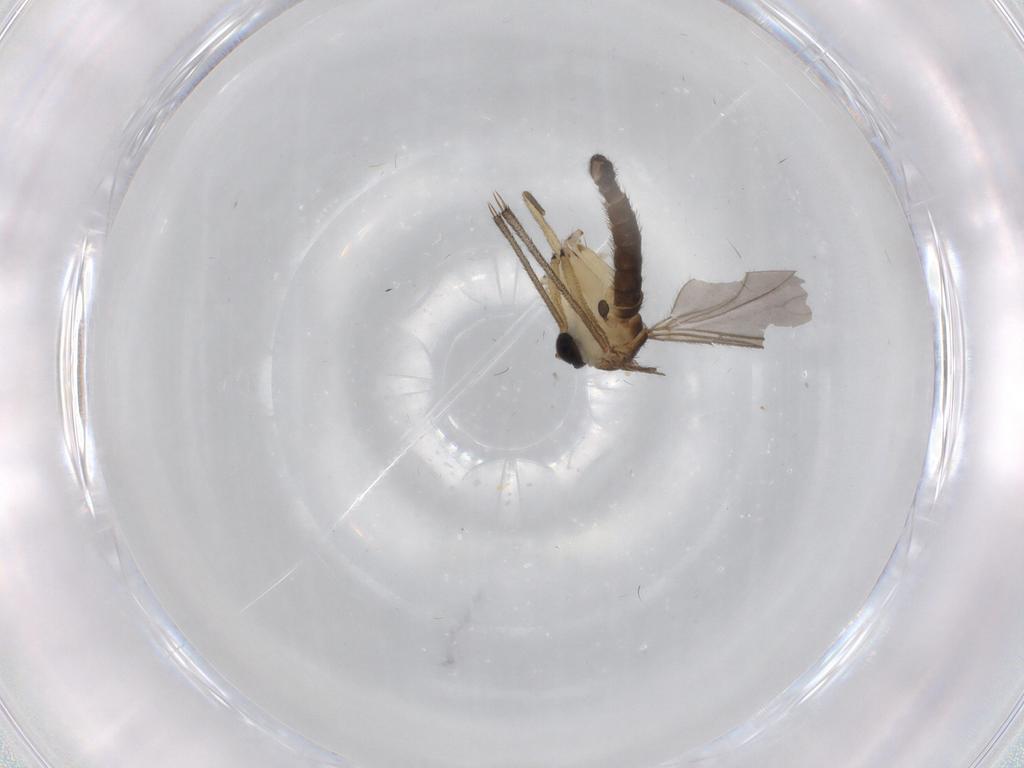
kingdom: Animalia
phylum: Arthropoda
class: Insecta
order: Diptera
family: Sciaridae
